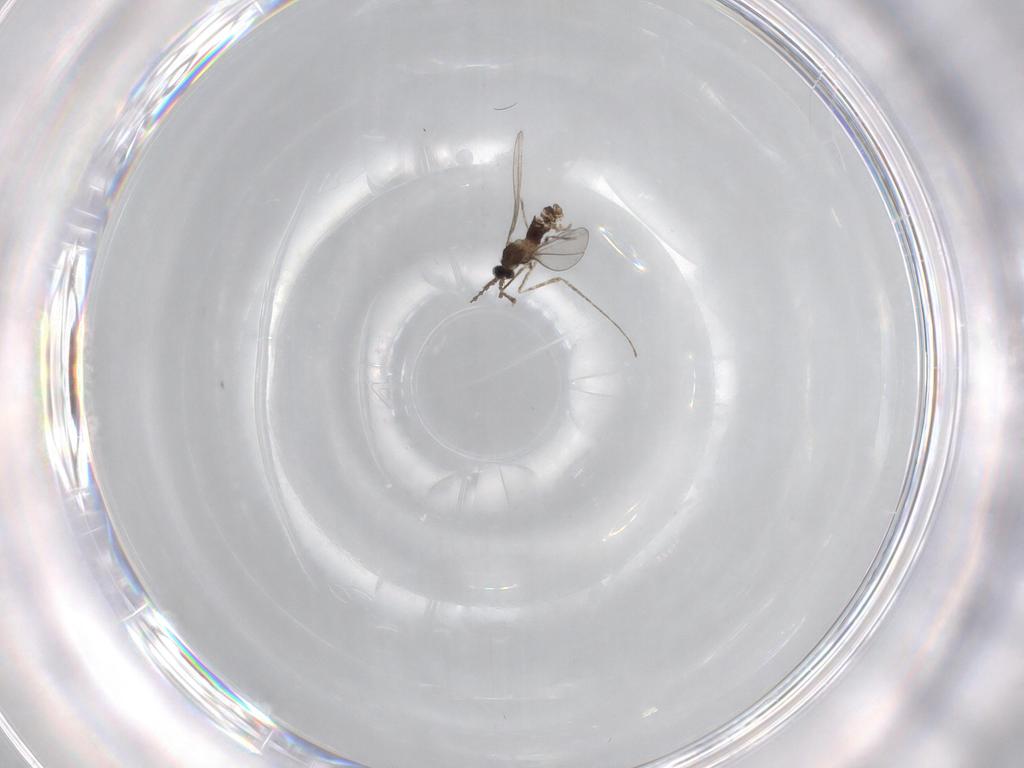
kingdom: Animalia
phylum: Arthropoda
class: Insecta
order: Diptera
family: Cecidomyiidae
